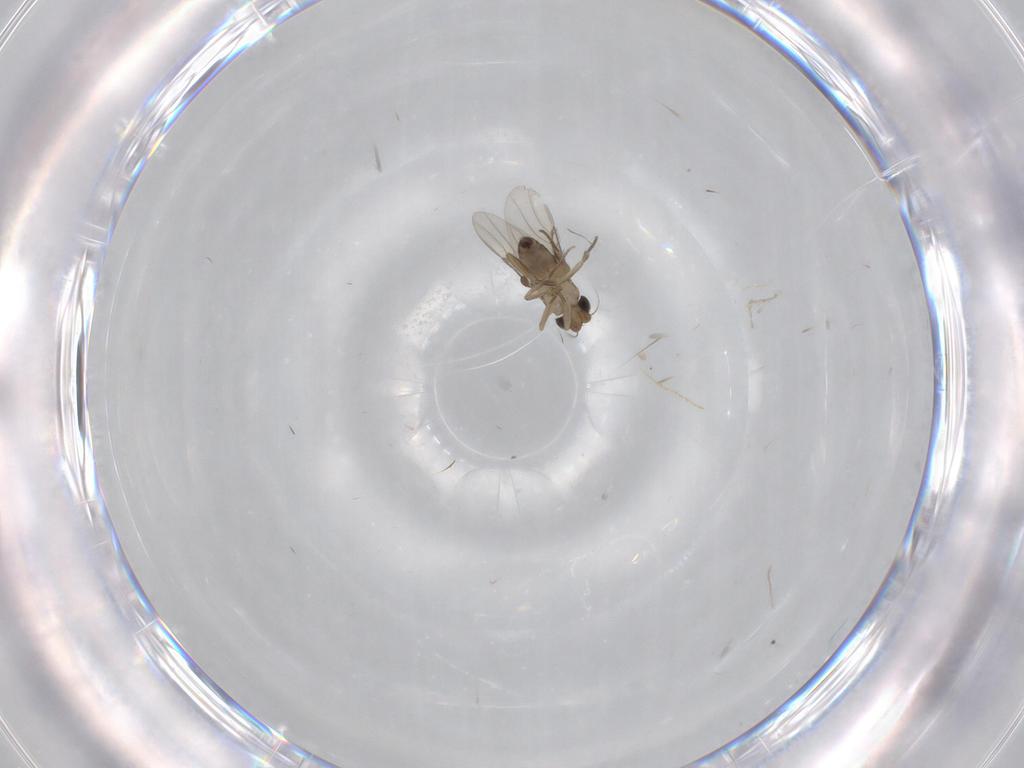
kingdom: Animalia
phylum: Arthropoda
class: Insecta
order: Diptera
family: Phoridae
